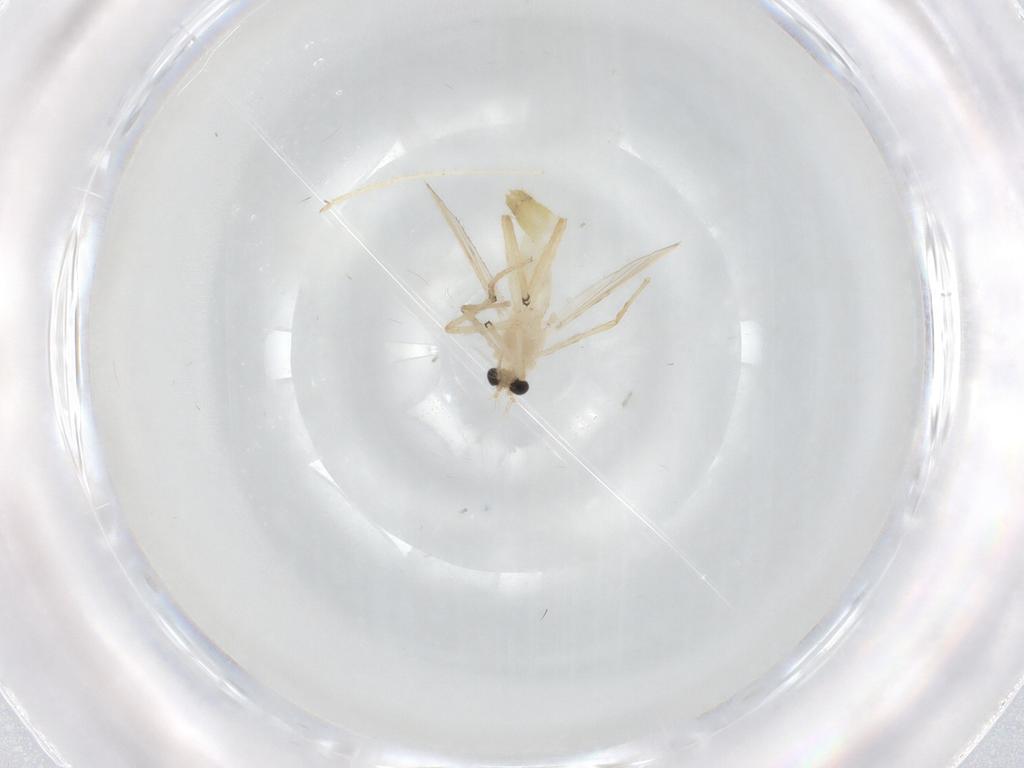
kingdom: Animalia
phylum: Arthropoda
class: Insecta
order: Diptera
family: Chironomidae
